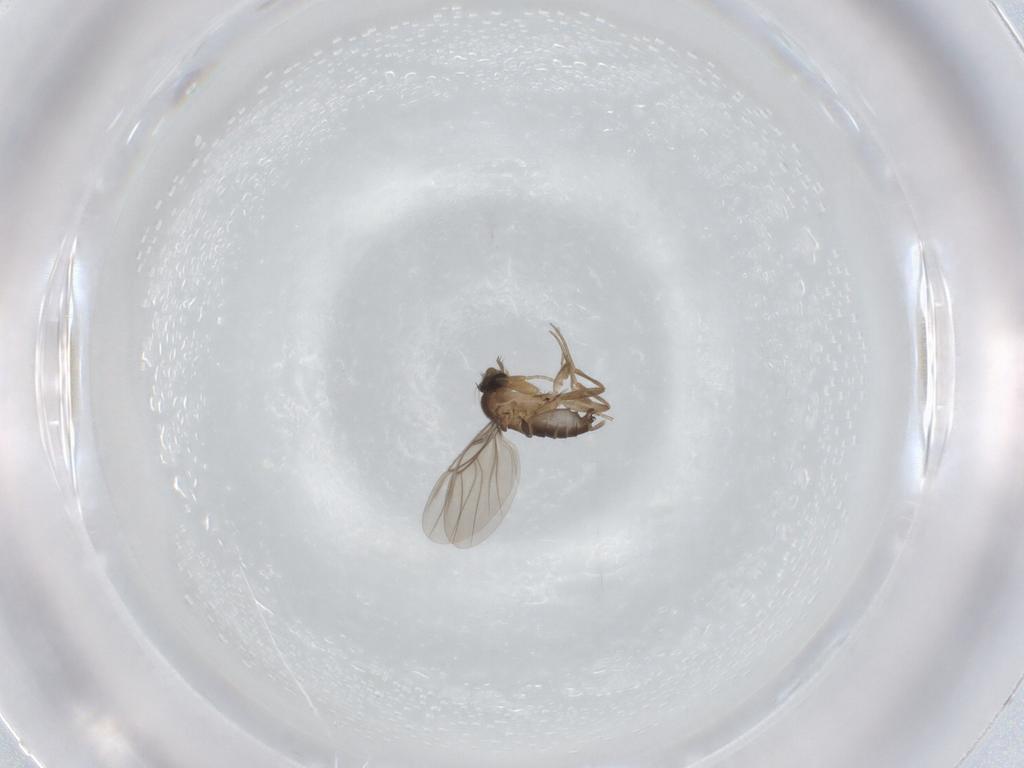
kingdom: Animalia
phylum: Arthropoda
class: Insecta
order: Diptera
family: Phoridae
